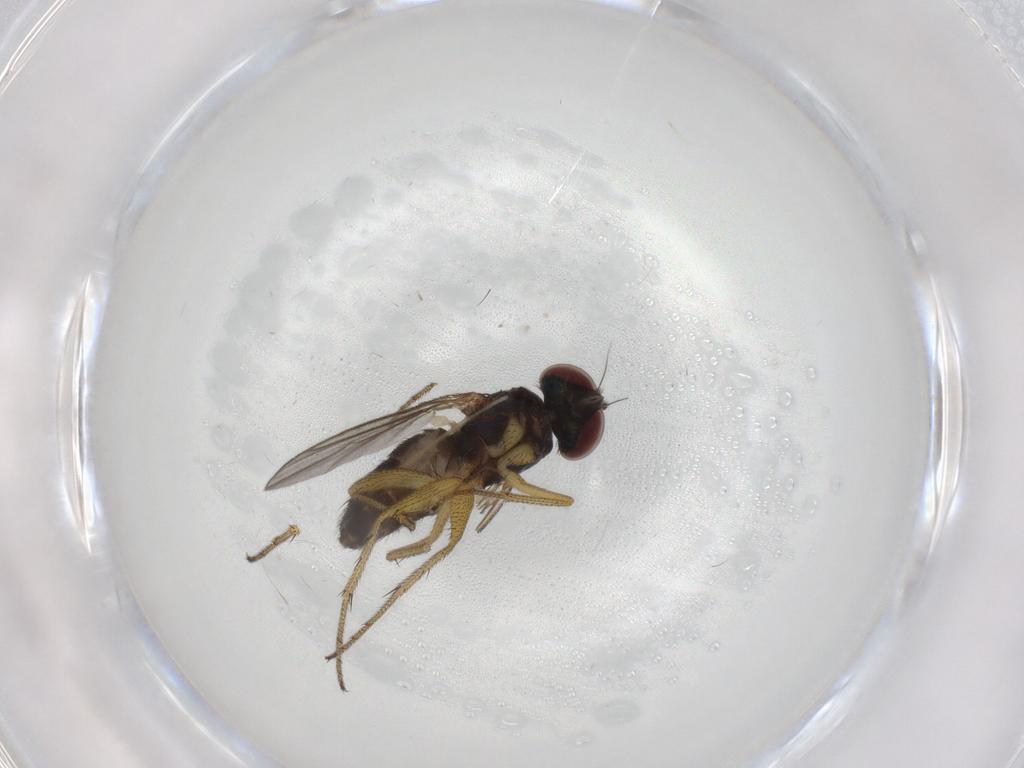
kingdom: Animalia
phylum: Arthropoda
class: Insecta
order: Diptera
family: Dolichopodidae
